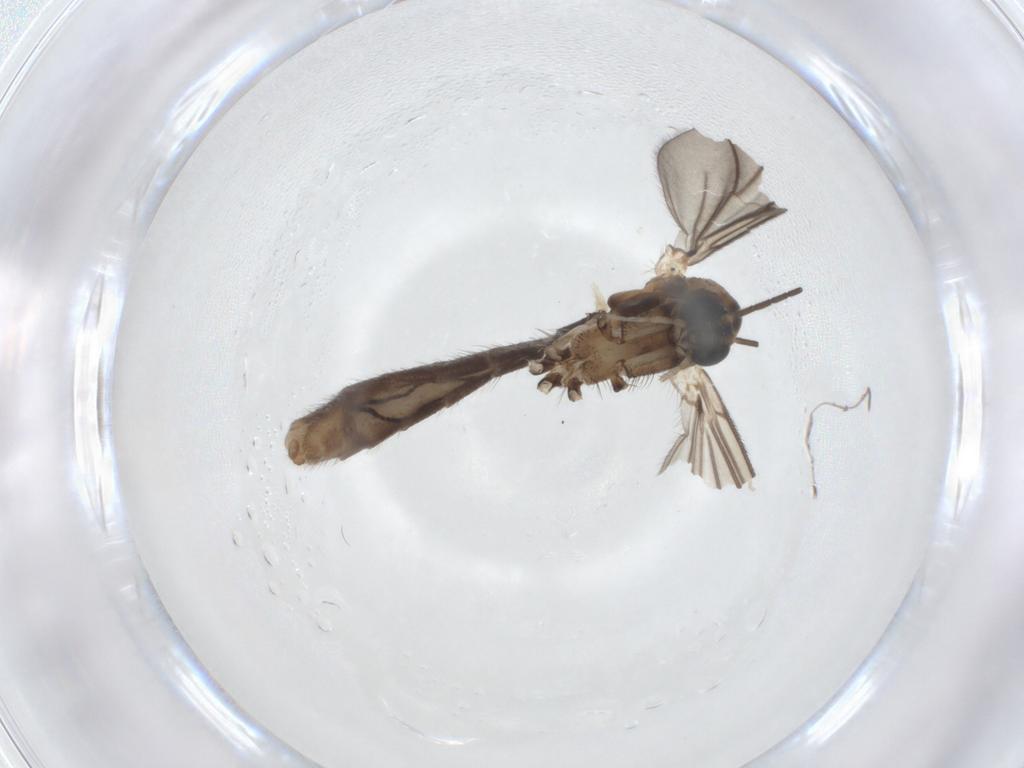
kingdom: Animalia
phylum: Arthropoda
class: Insecta
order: Diptera
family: Mycetophilidae
